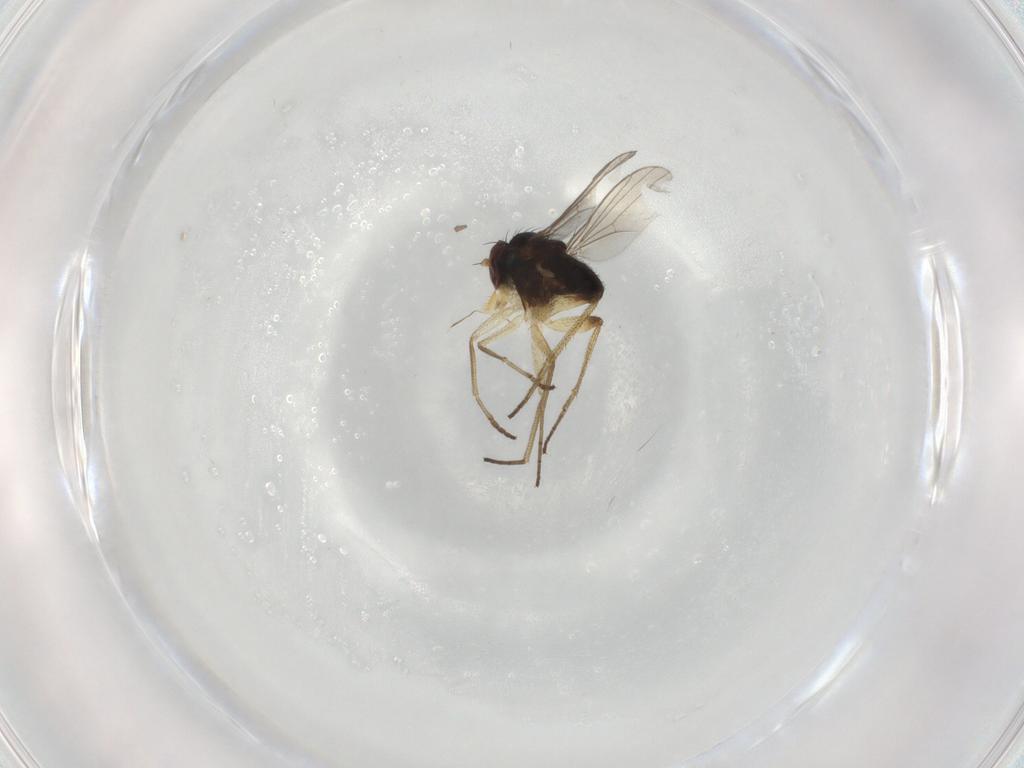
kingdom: Animalia
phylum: Arthropoda
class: Insecta
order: Diptera
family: Dolichopodidae
